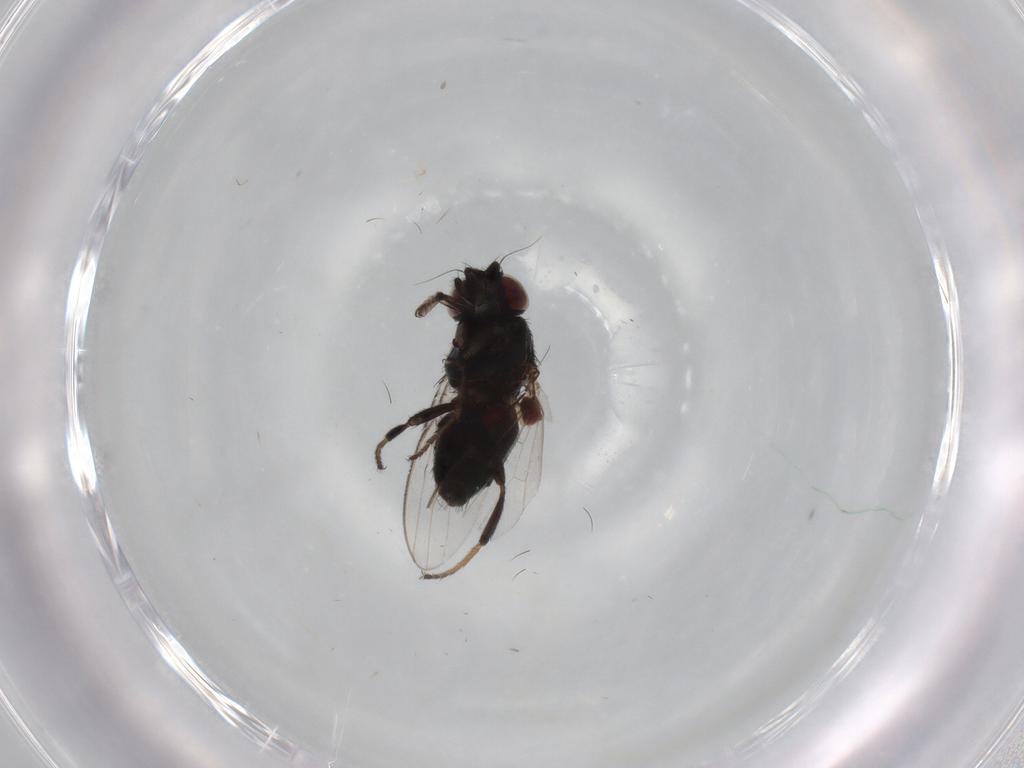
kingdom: Animalia
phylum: Arthropoda
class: Insecta
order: Diptera
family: Milichiidae
